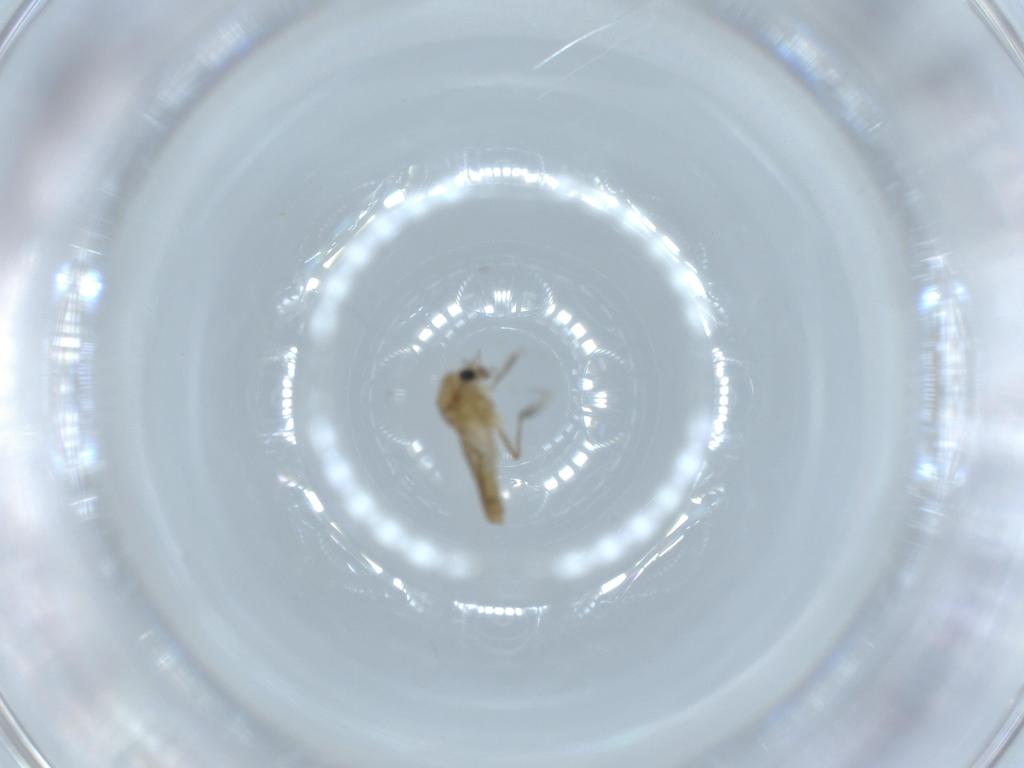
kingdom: Animalia
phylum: Arthropoda
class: Insecta
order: Diptera
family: Chironomidae
